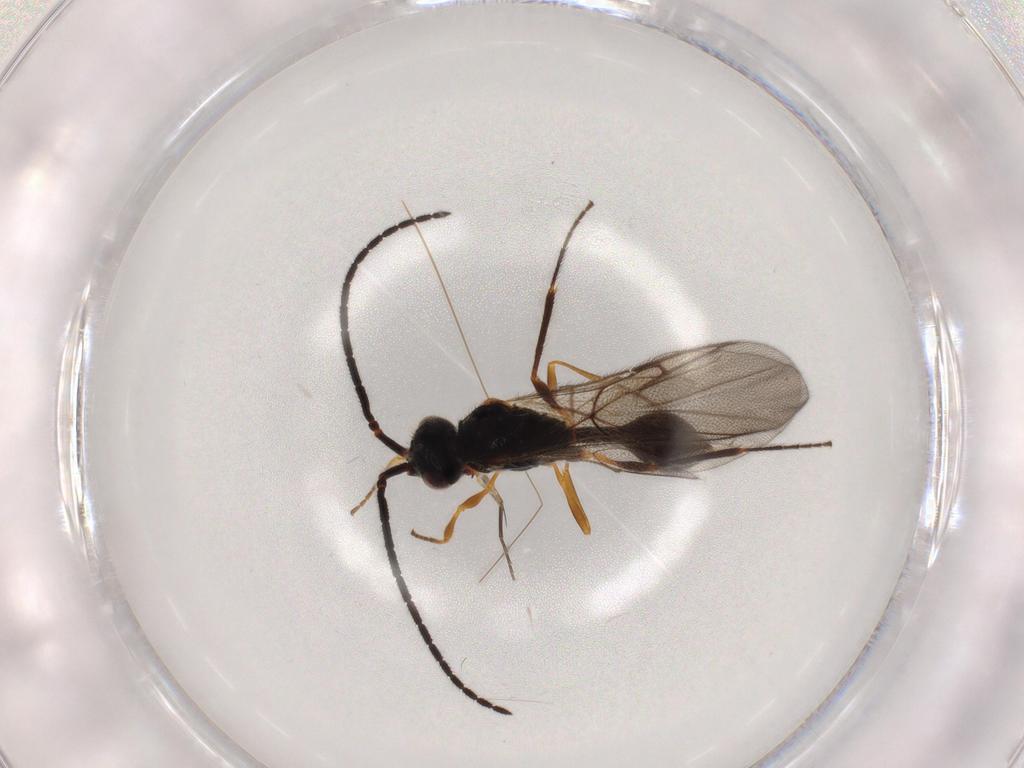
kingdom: Animalia
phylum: Arthropoda
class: Insecta
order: Hymenoptera
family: Diapriidae
